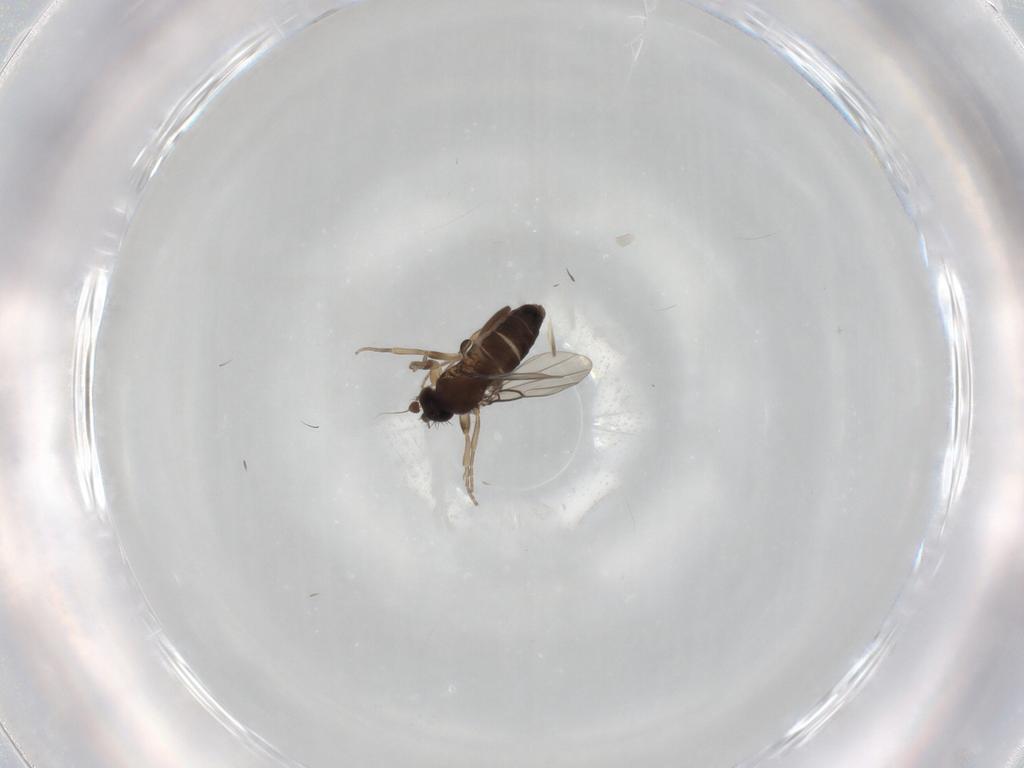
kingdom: Animalia
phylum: Arthropoda
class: Insecta
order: Diptera
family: Phoridae
